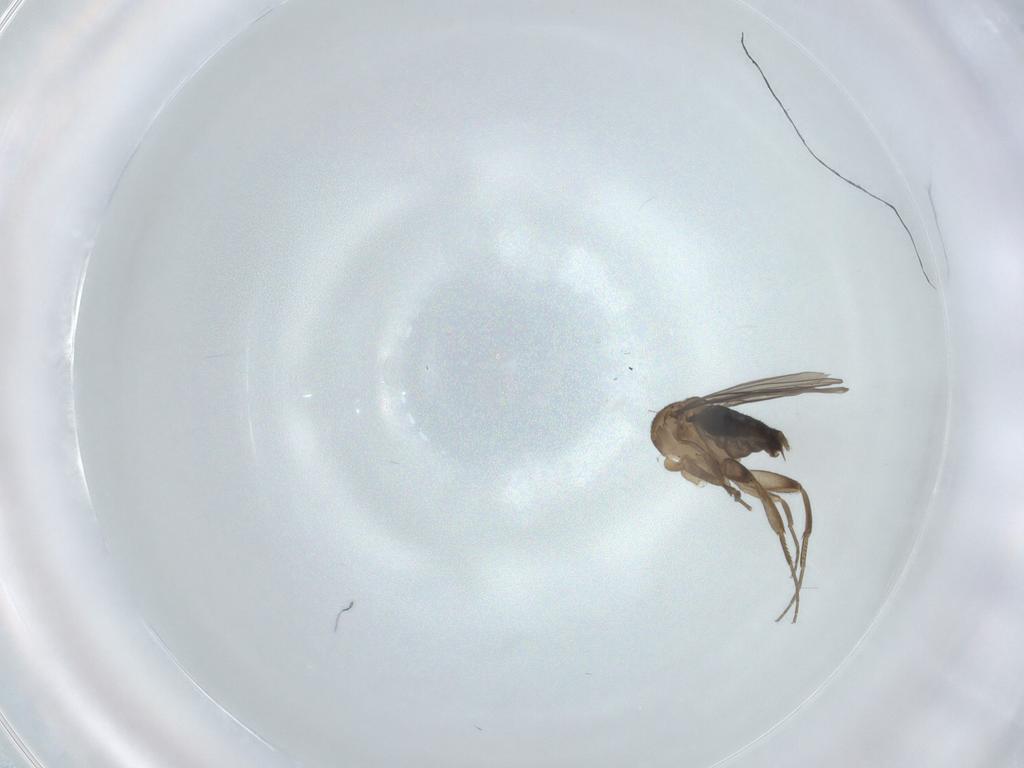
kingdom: Animalia
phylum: Arthropoda
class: Insecta
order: Diptera
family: Phoridae
